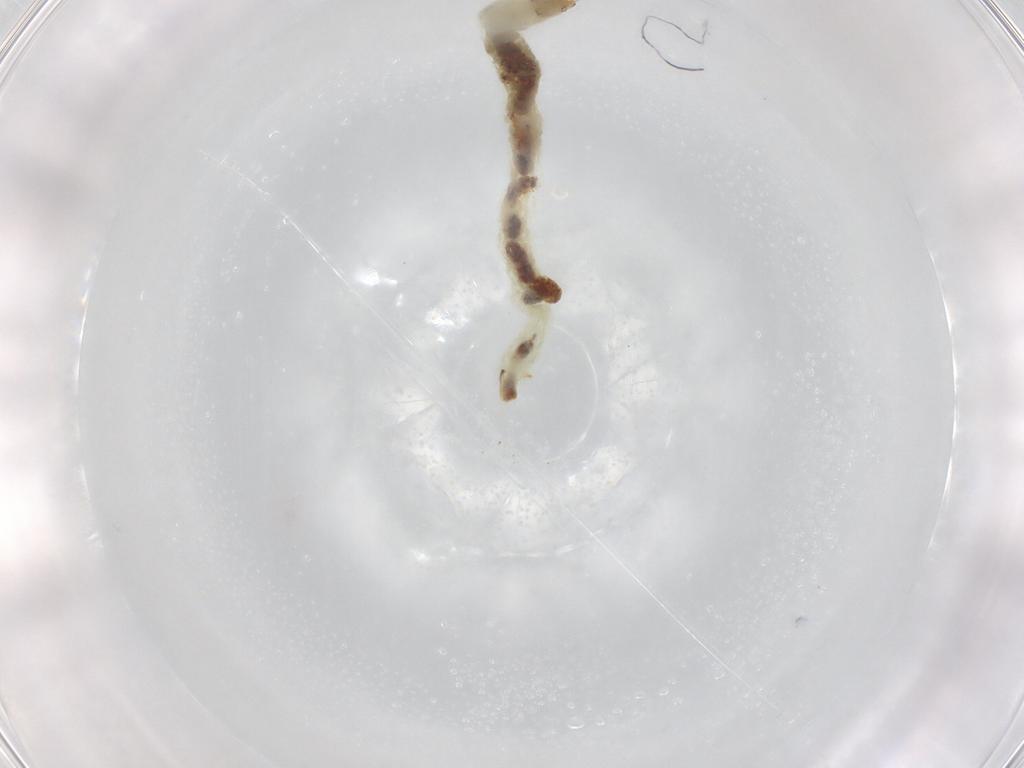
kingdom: Animalia
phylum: Arthropoda
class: Insecta
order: Diptera
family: Chironomidae
